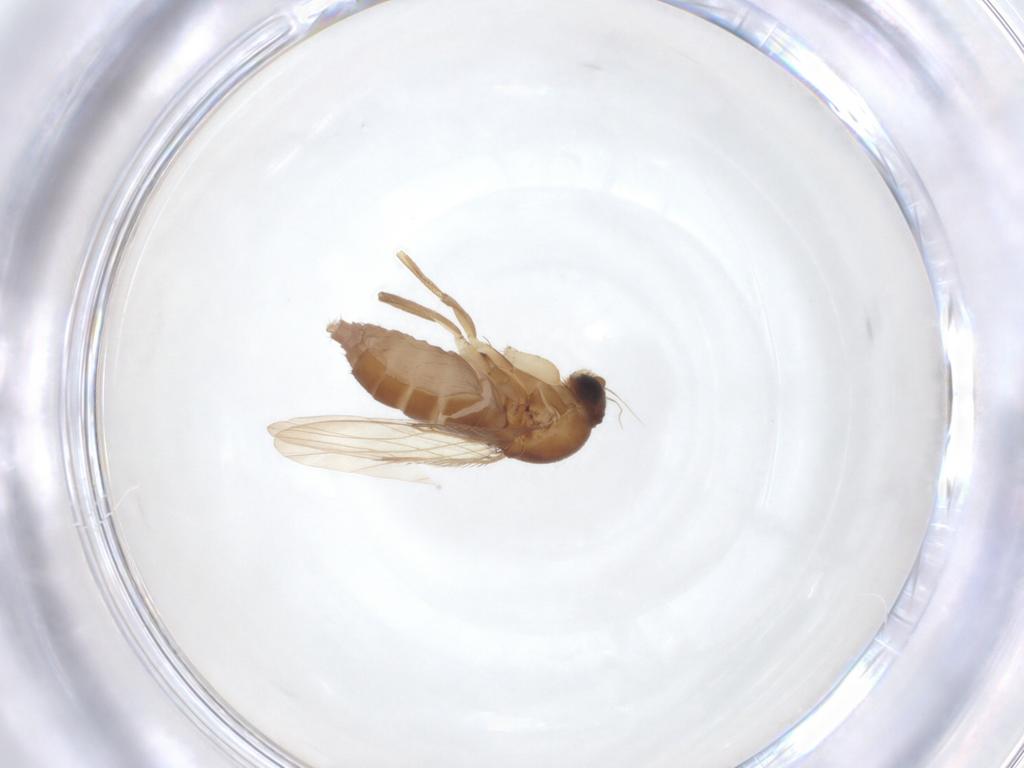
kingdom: Animalia
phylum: Arthropoda
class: Insecta
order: Diptera
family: Phoridae
